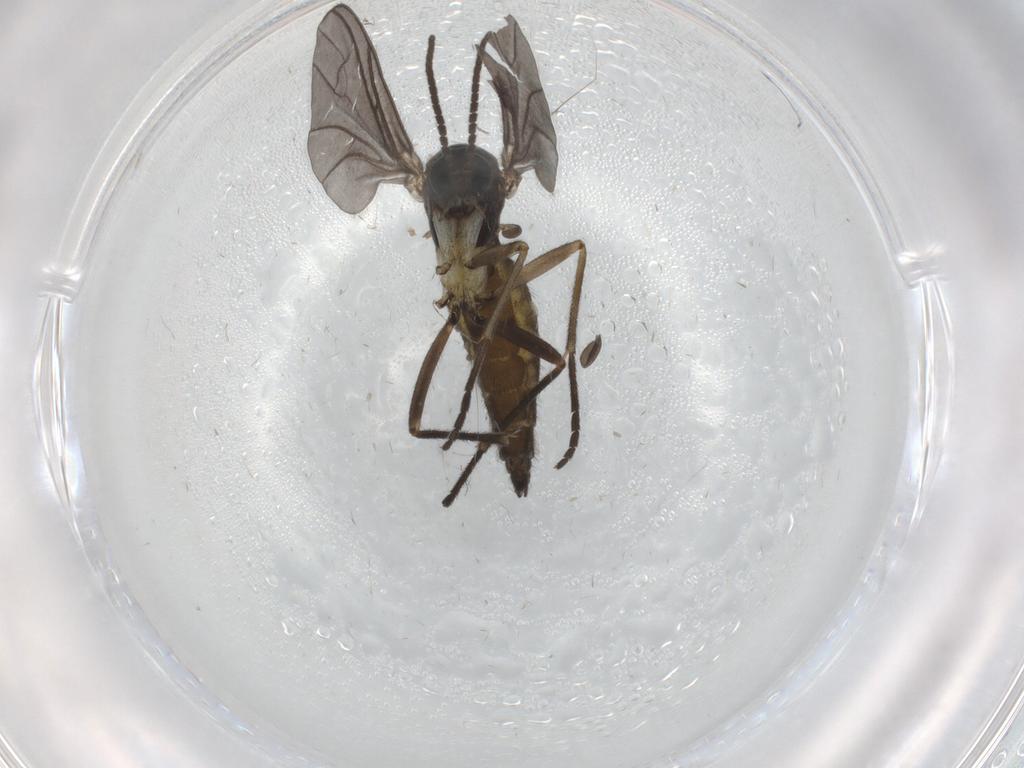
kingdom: Animalia
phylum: Arthropoda
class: Insecta
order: Diptera
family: Sciaridae
